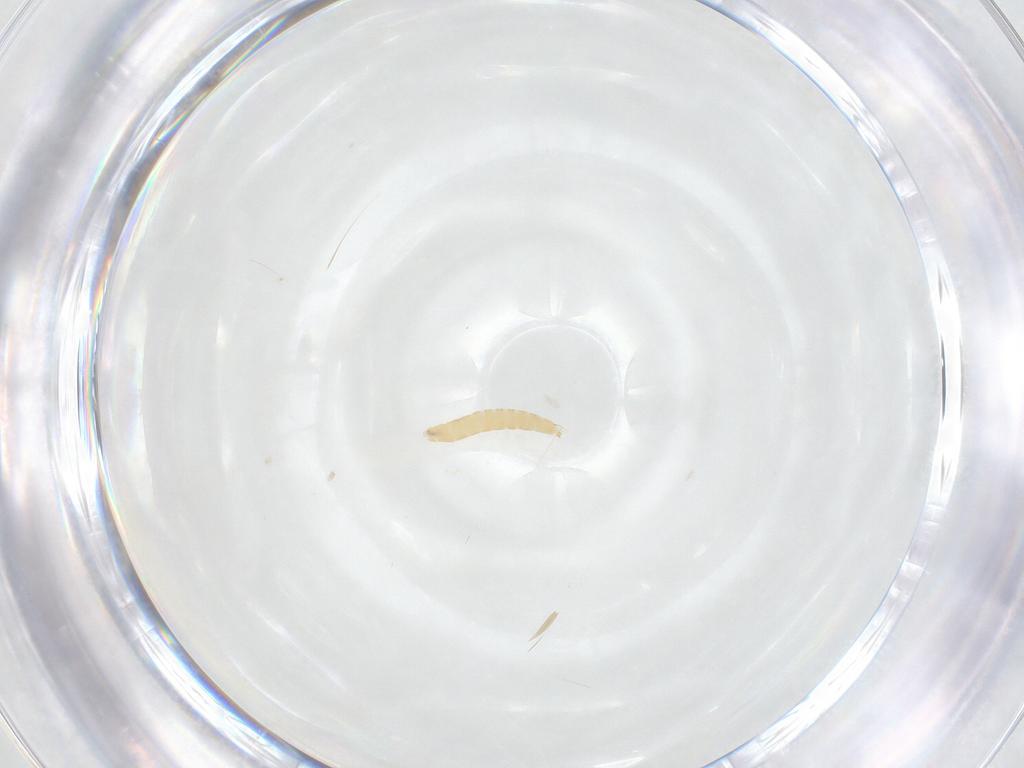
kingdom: Animalia
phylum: Arthropoda
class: Insecta
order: Diptera
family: Tachinidae
